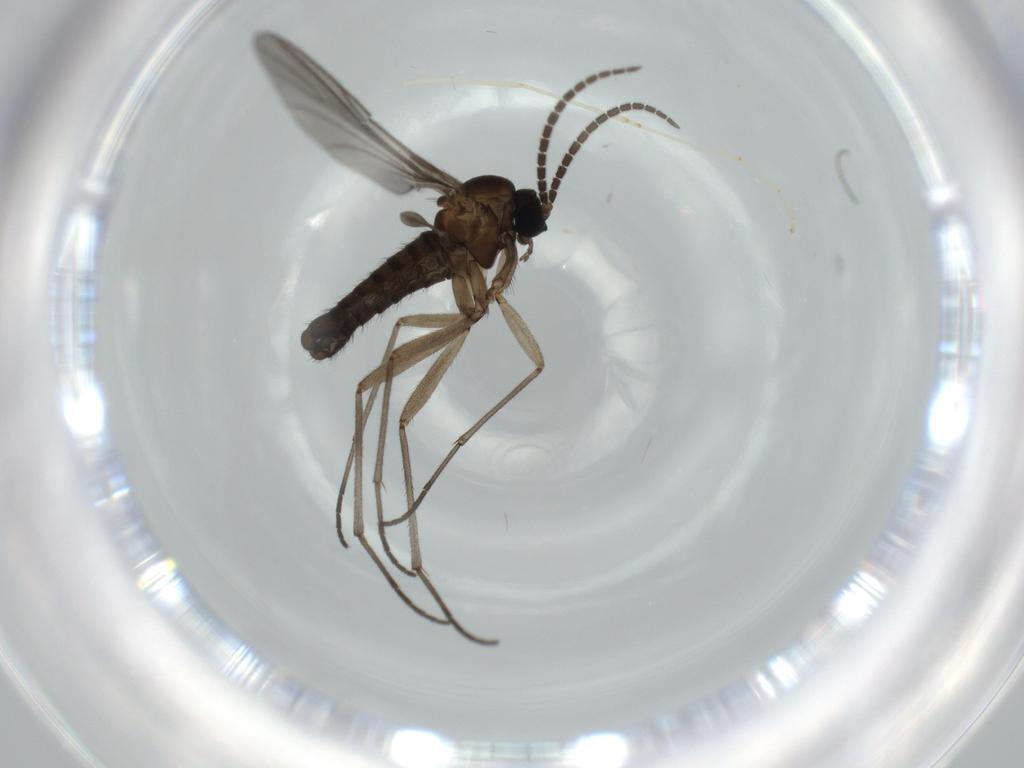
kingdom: Animalia
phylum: Arthropoda
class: Insecta
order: Diptera
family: Sciaridae
